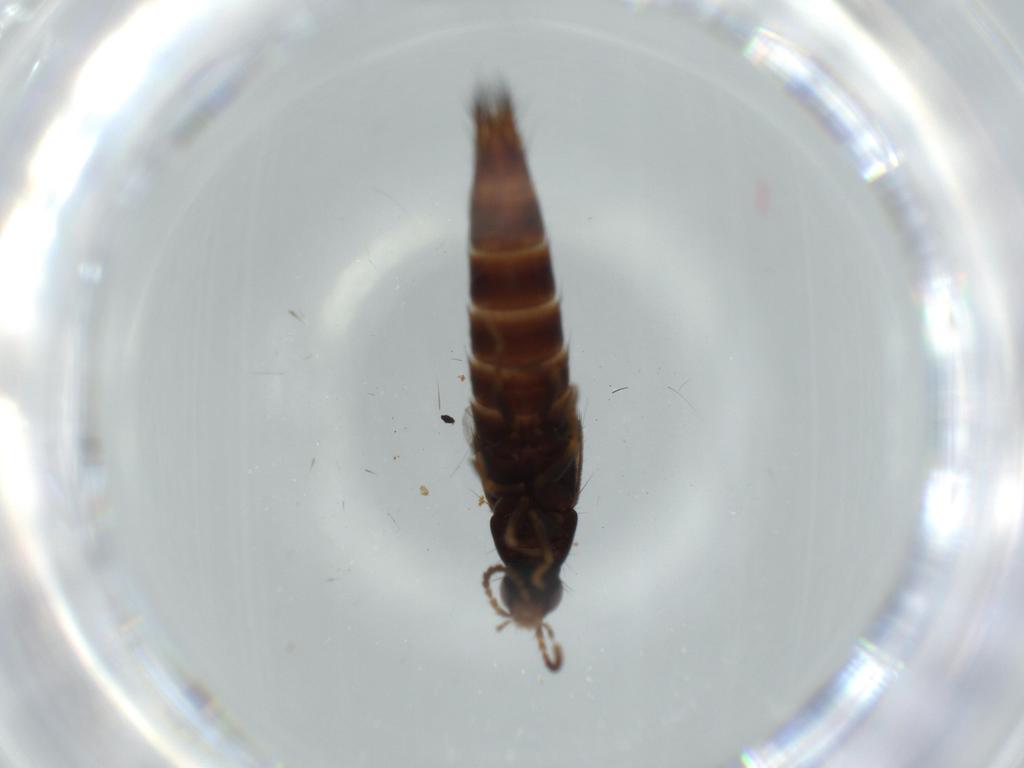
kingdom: Animalia
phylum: Arthropoda
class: Insecta
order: Coleoptera
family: Staphylinidae
